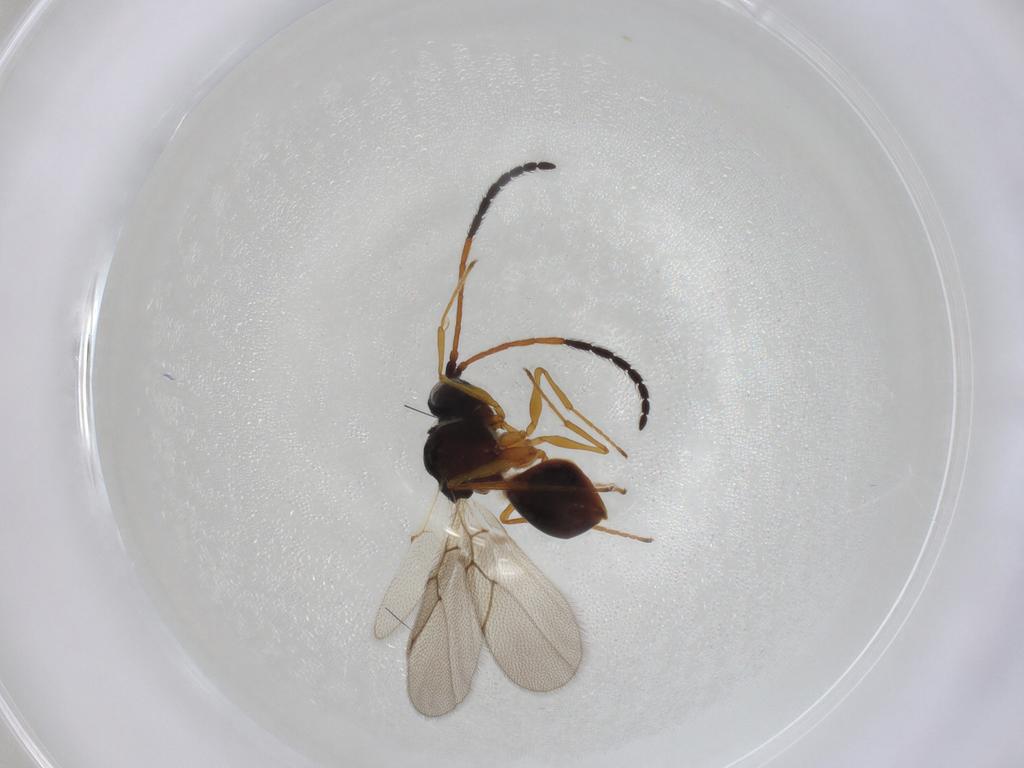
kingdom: Animalia
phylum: Arthropoda
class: Insecta
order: Hymenoptera
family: Figitidae
